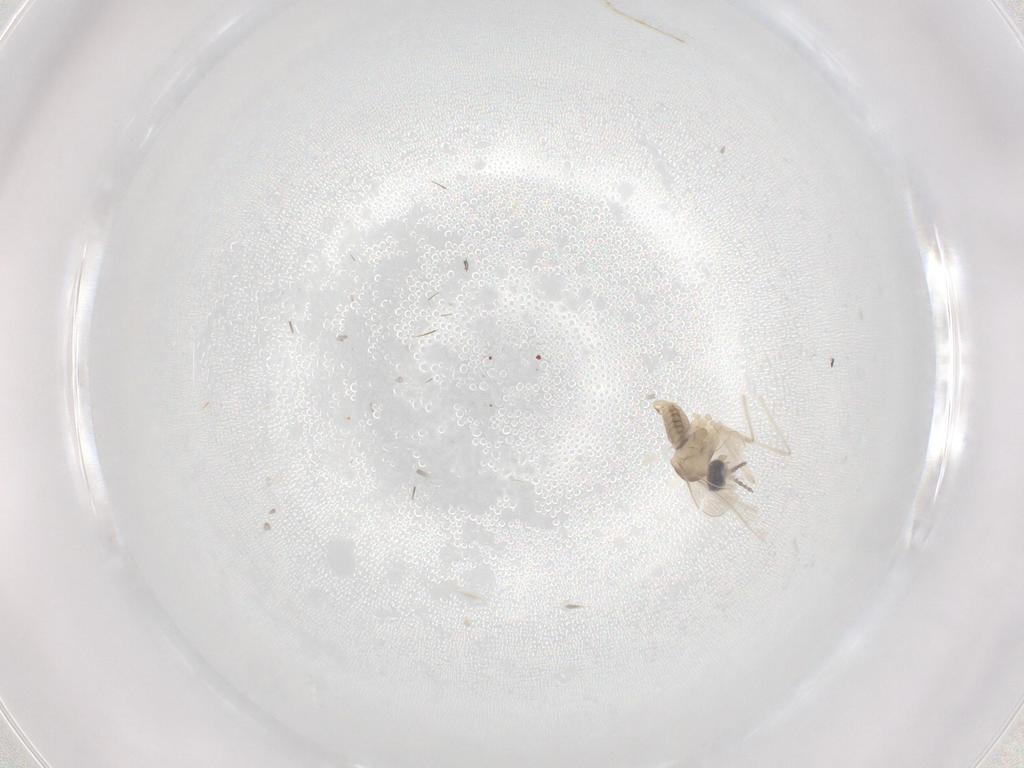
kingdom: Animalia
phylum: Arthropoda
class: Insecta
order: Diptera
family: Cecidomyiidae
